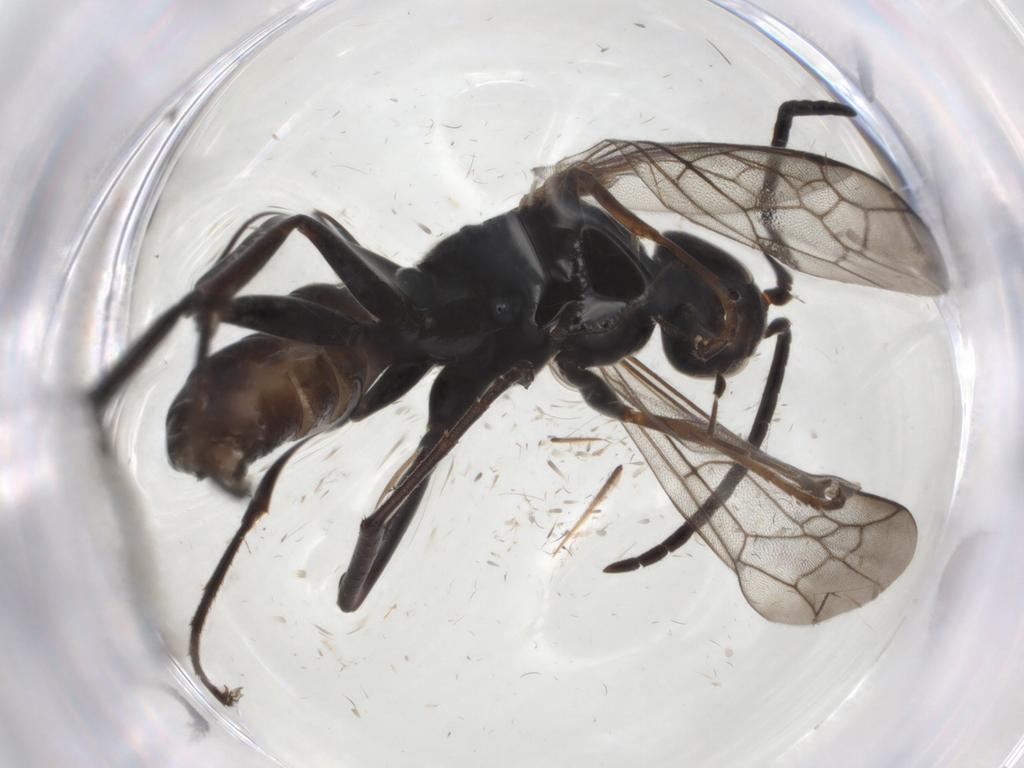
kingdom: Animalia
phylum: Arthropoda
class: Insecta
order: Hymenoptera
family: Pompilidae
